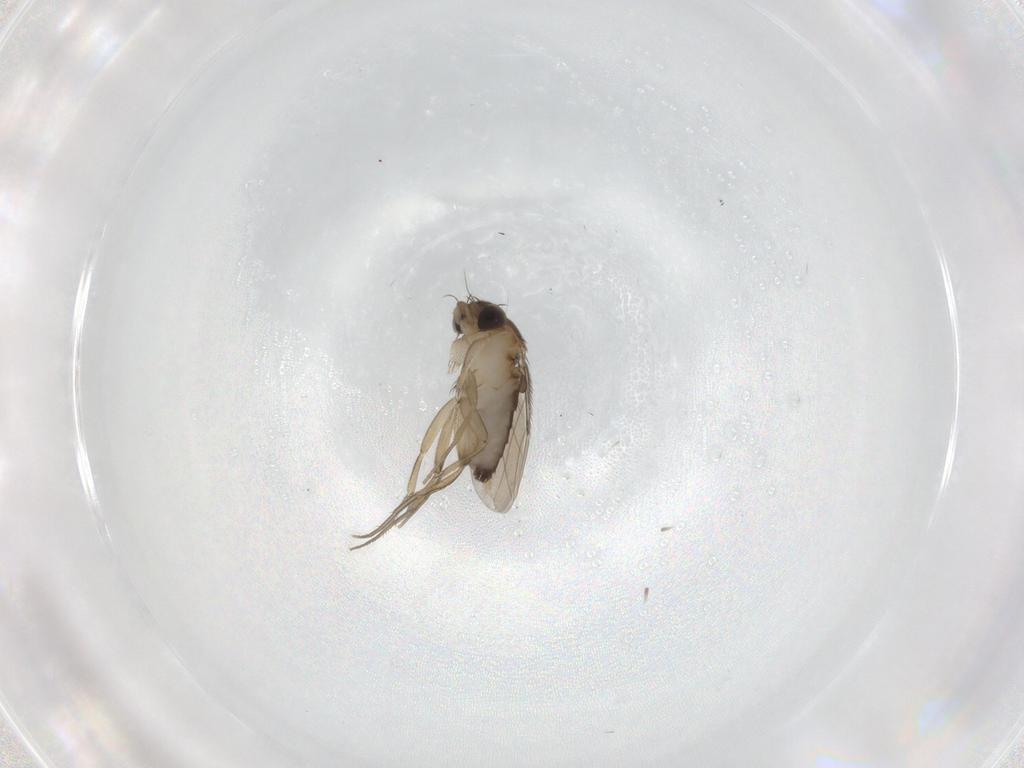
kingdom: Animalia
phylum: Arthropoda
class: Insecta
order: Diptera
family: Phoridae
